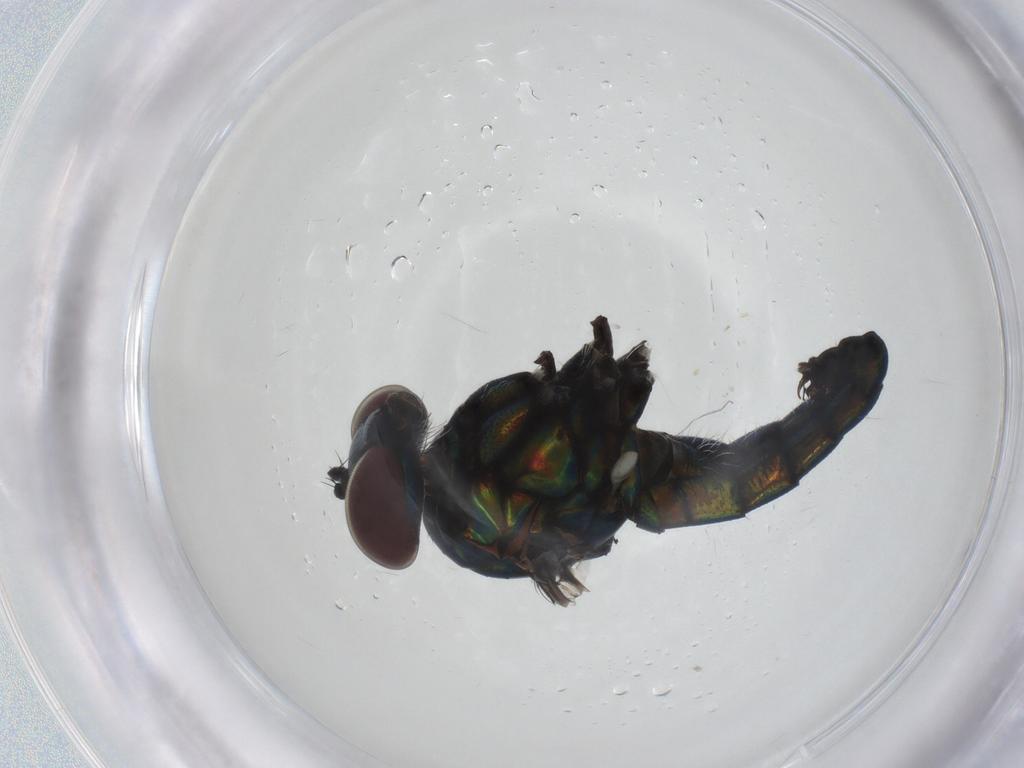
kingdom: Animalia
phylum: Arthropoda
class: Insecta
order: Diptera
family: Dolichopodidae
